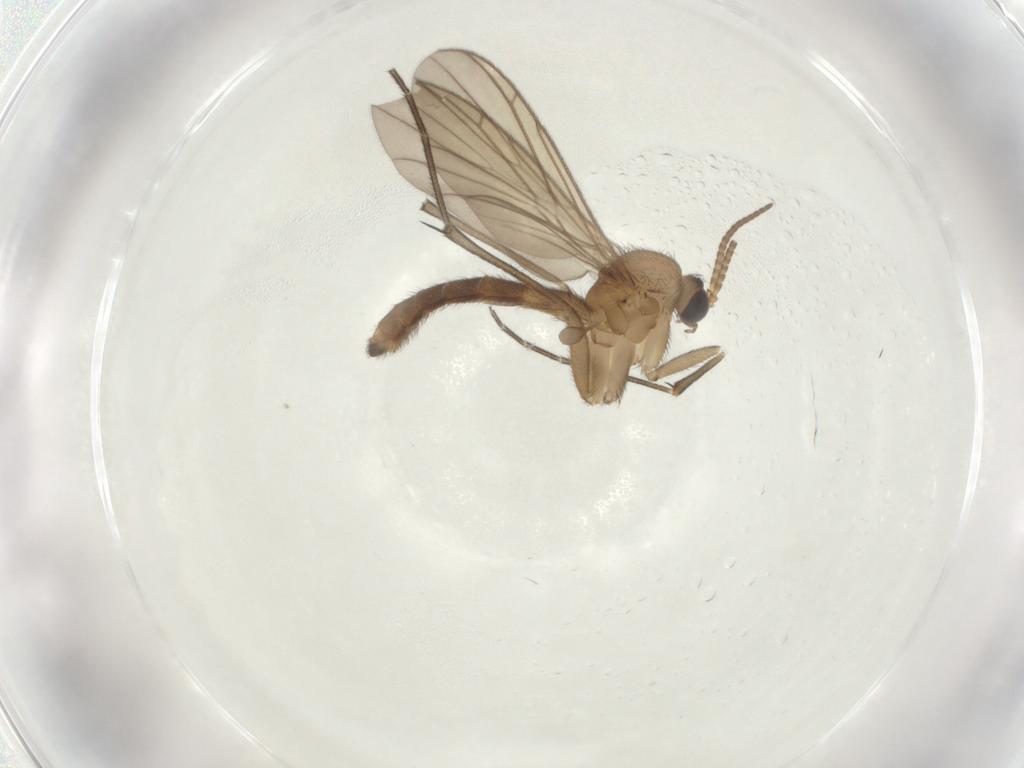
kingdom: Animalia
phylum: Arthropoda
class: Insecta
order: Diptera
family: Keroplatidae
